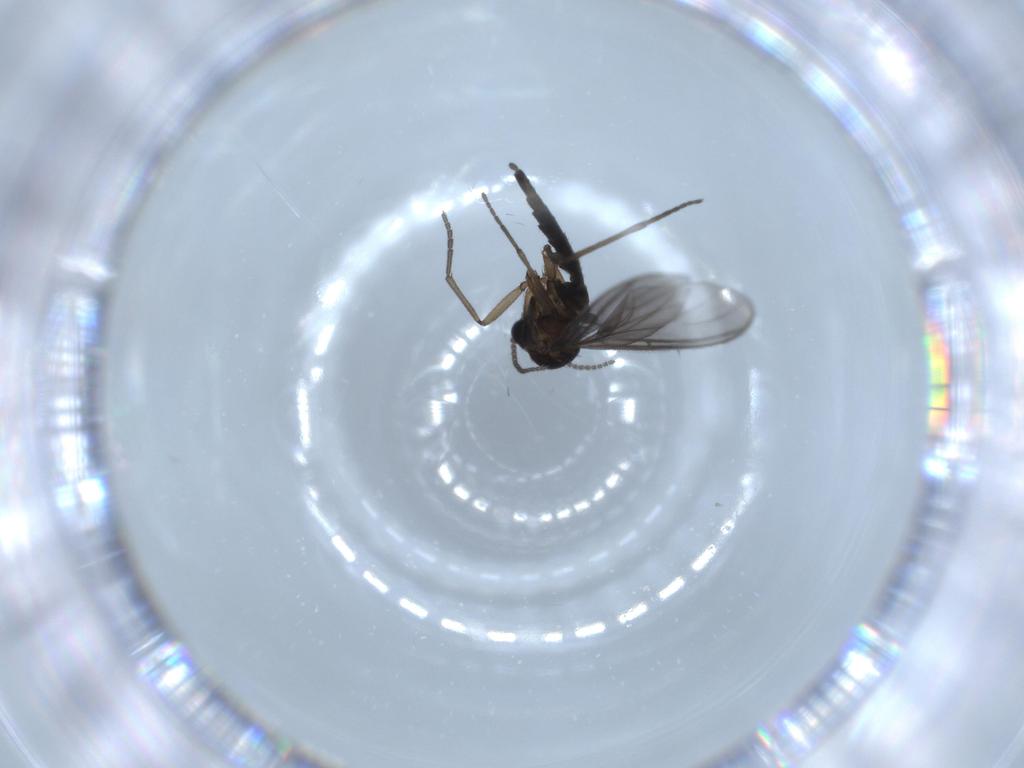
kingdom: Animalia
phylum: Arthropoda
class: Insecta
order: Diptera
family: Sciaridae
